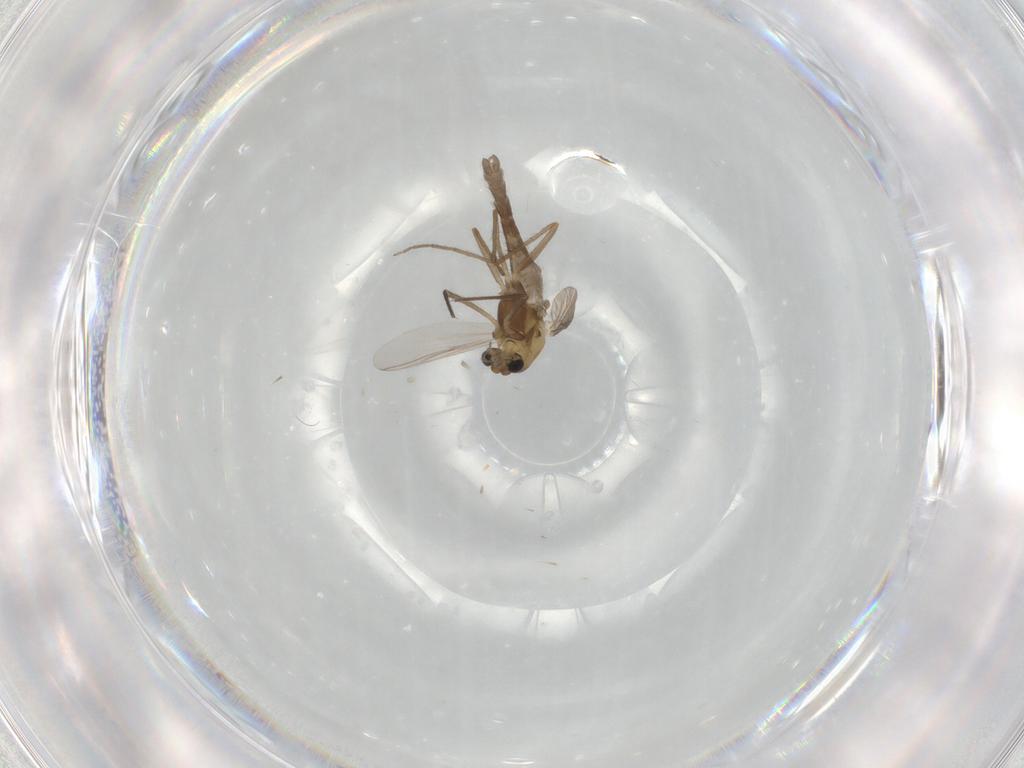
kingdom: Animalia
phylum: Arthropoda
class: Insecta
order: Diptera
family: Chironomidae
